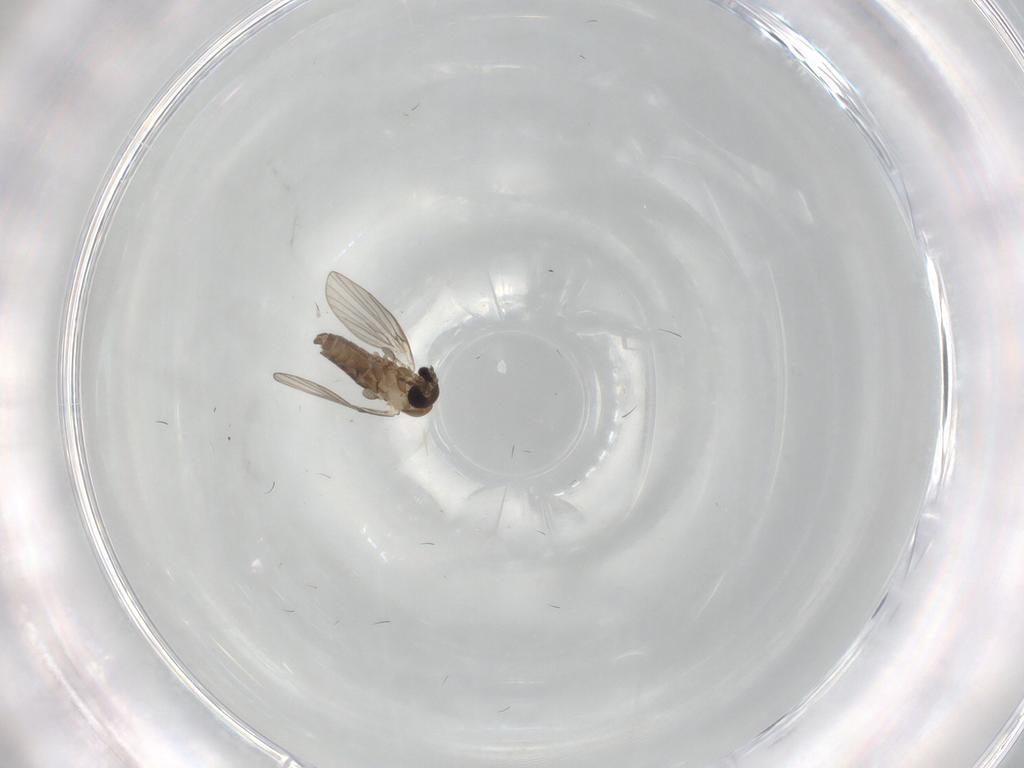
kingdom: Animalia
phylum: Arthropoda
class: Insecta
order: Diptera
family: Psychodidae
